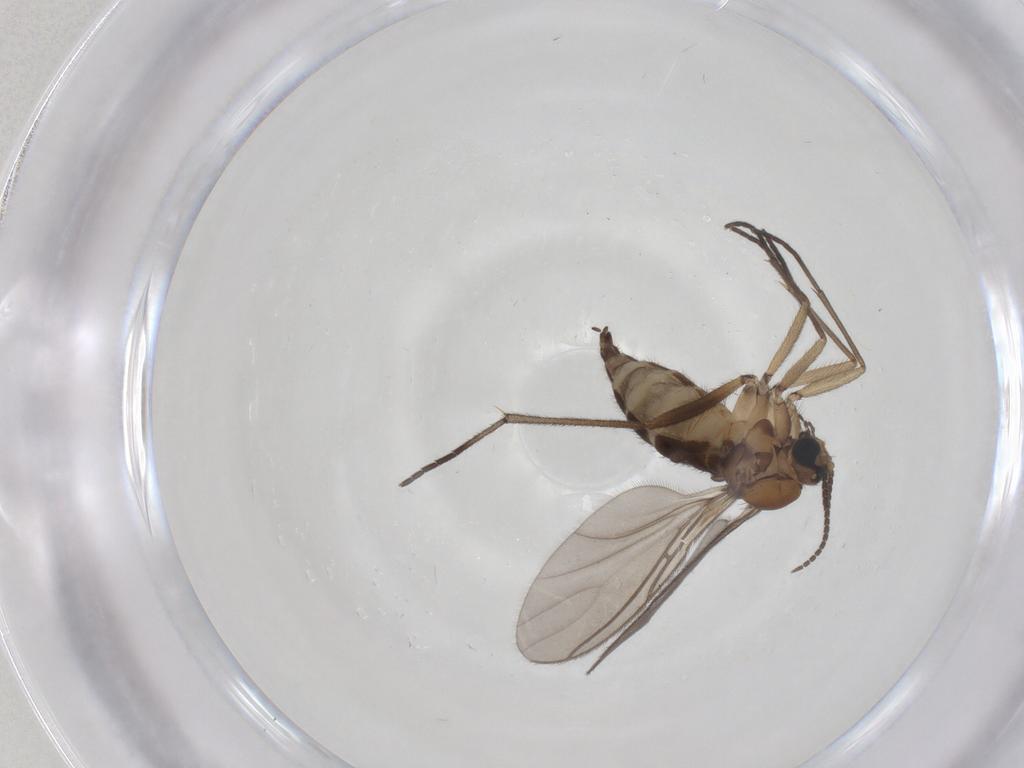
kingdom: Animalia
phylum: Arthropoda
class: Insecta
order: Diptera
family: Sciaridae
